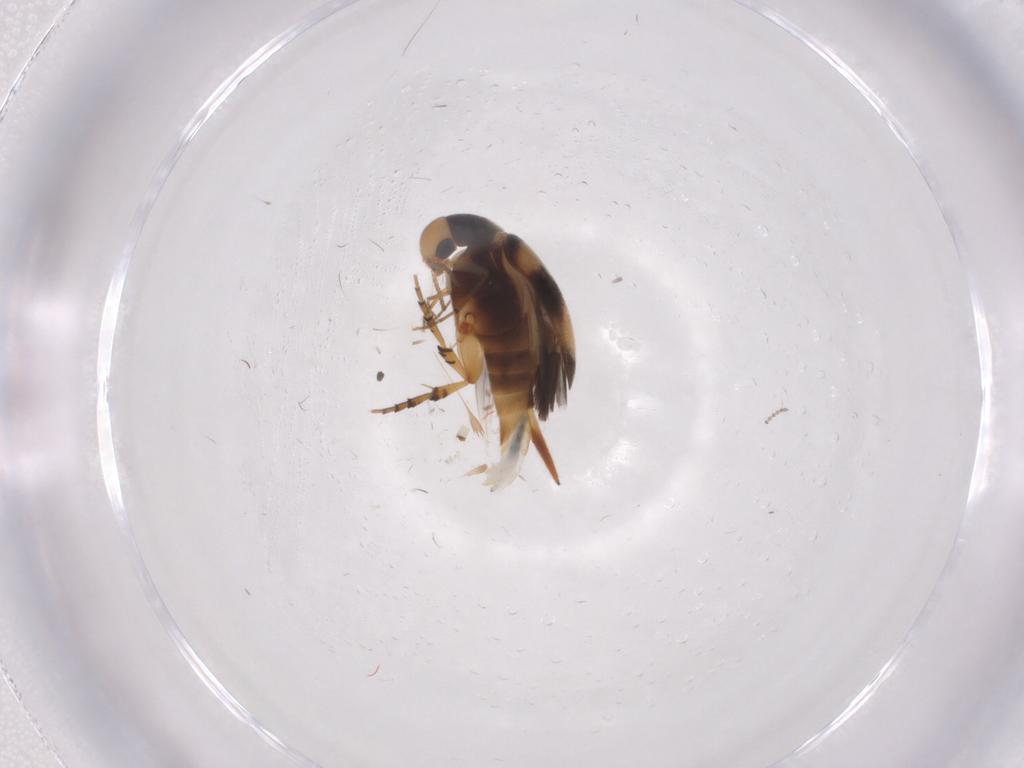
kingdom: Animalia
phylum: Arthropoda
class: Insecta
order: Coleoptera
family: Mordellidae
